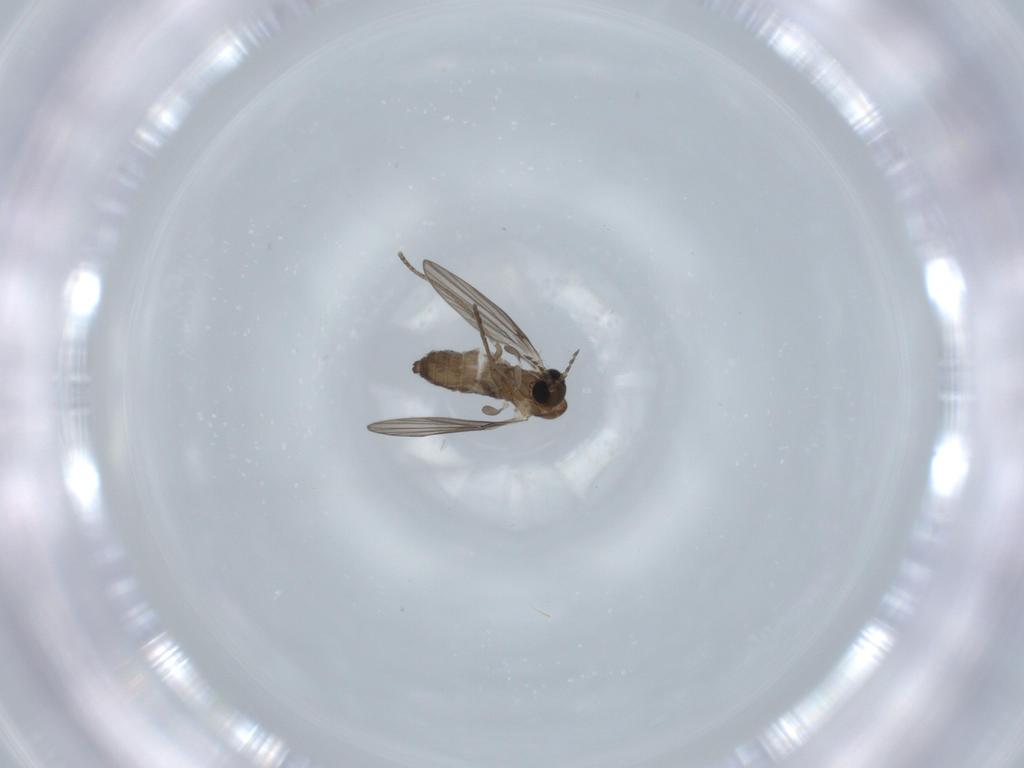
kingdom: Animalia
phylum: Arthropoda
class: Insecta
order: Diptera
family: Psychodidae
